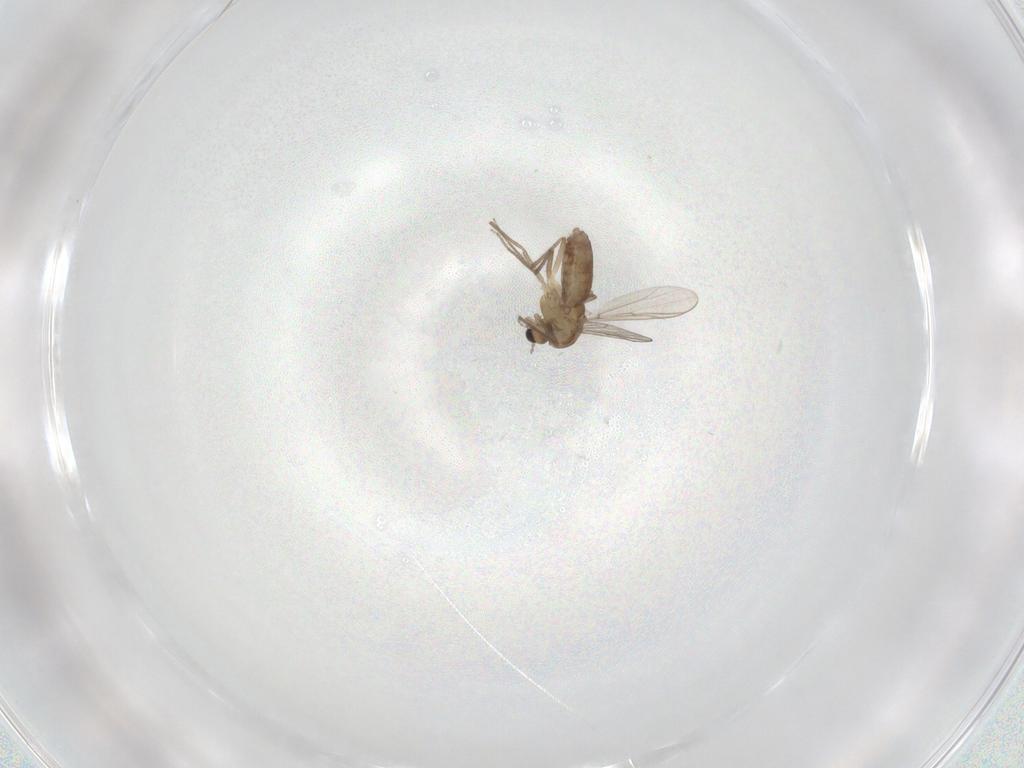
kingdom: Animalia
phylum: Arthropoda
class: Insecta
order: Diptera
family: Chironomidae
